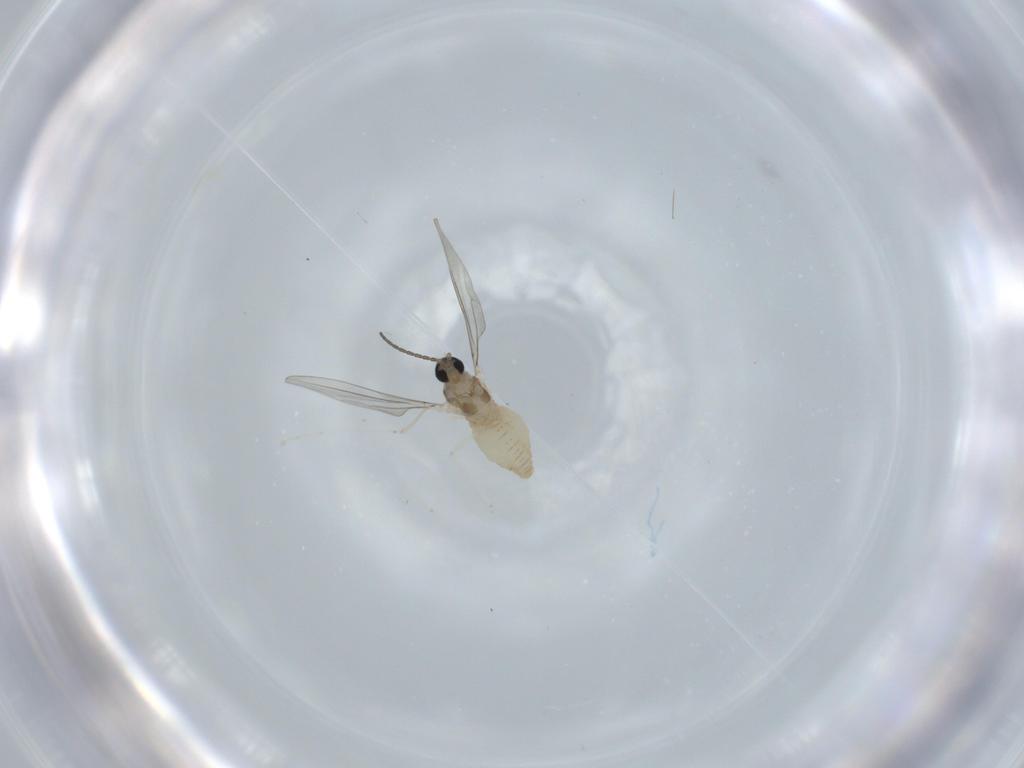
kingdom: Animalia
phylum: Arthropoda
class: Insecta
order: Diptera
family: Cecidomyiidae
